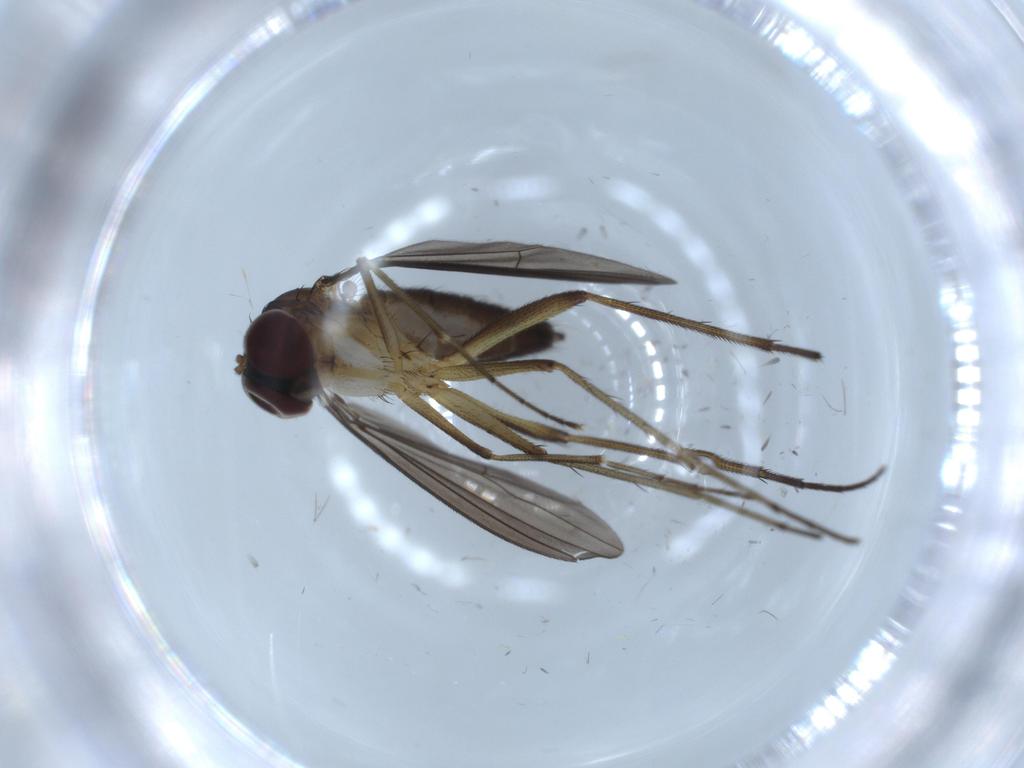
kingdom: Animalia
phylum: Arthropoda
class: Insecta
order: Diptera
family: Dolichopodidae
